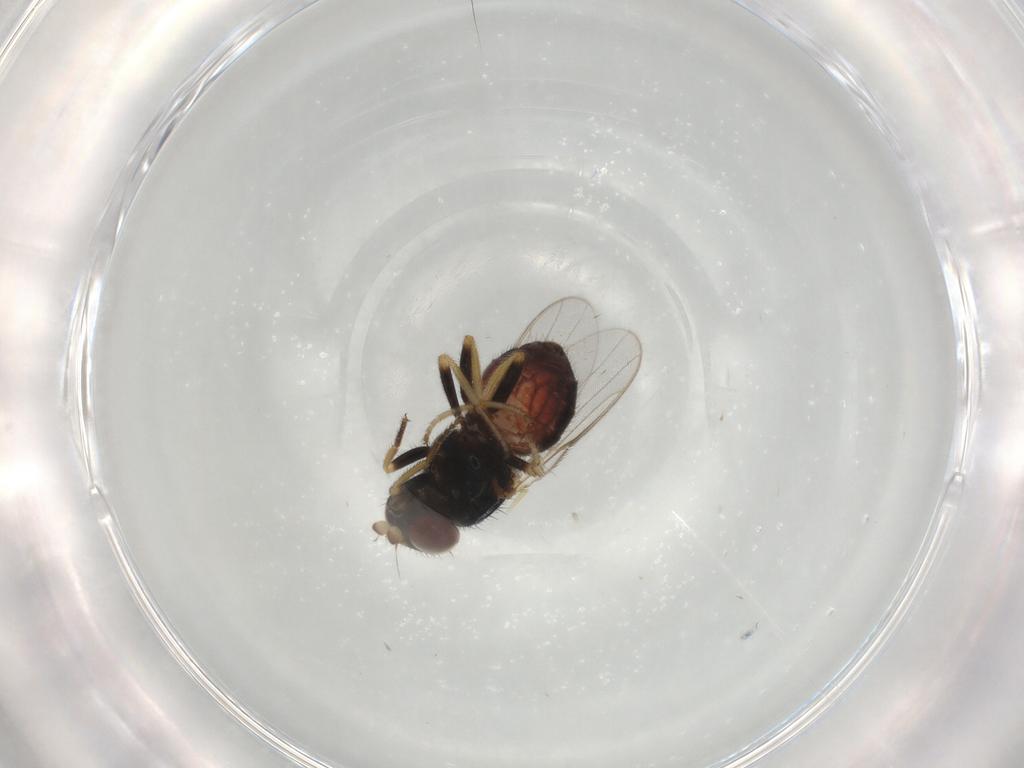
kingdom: Animalia
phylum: Arthropoda
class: Insecta
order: Diptera
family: Chloropidae
